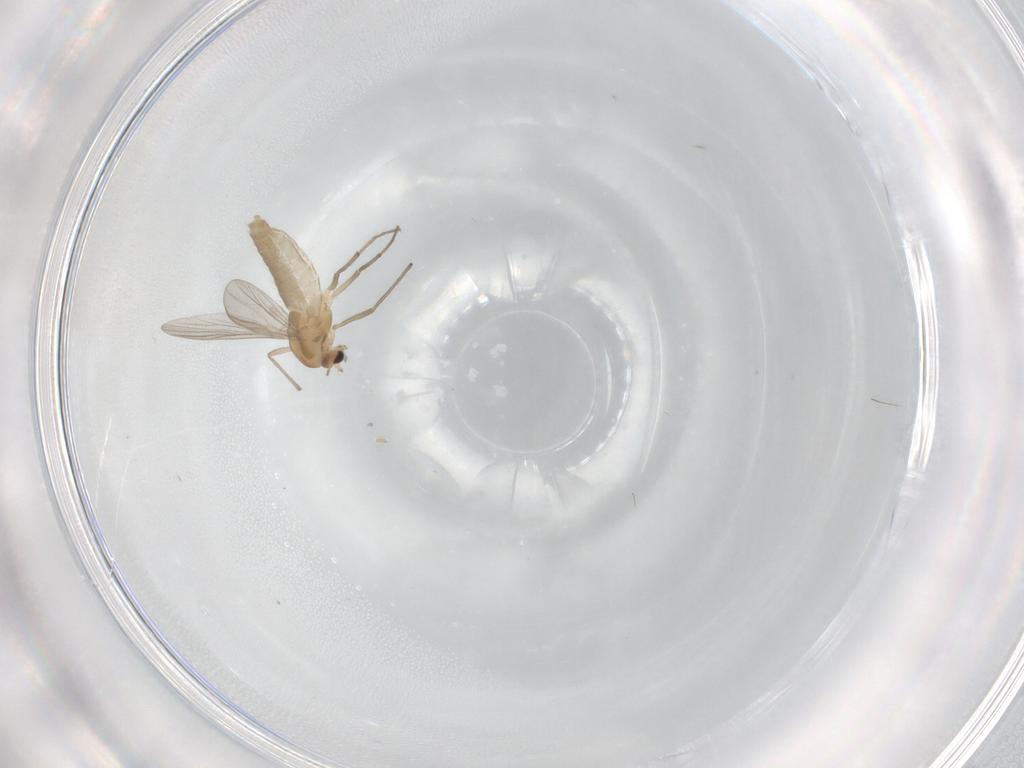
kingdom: Animalia
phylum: Arthropoda
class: Insecta
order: Diptera
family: Chironomidae
